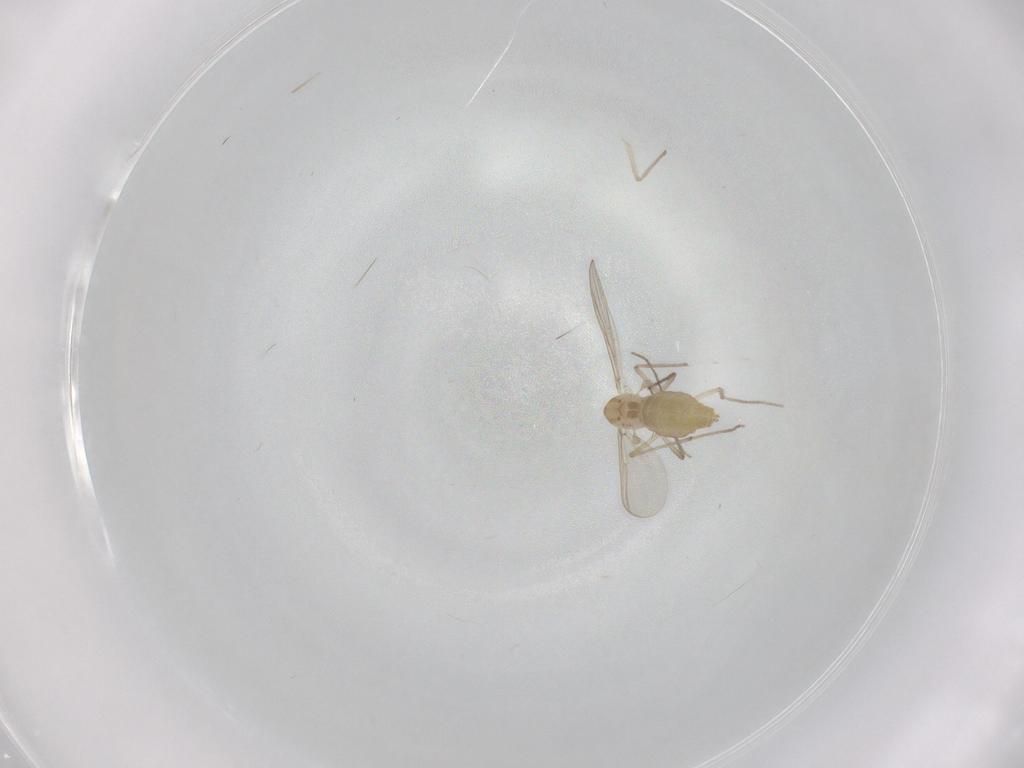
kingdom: Animalia
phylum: Arthropoda
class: Insecta
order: Diptera
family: Chironomidae
